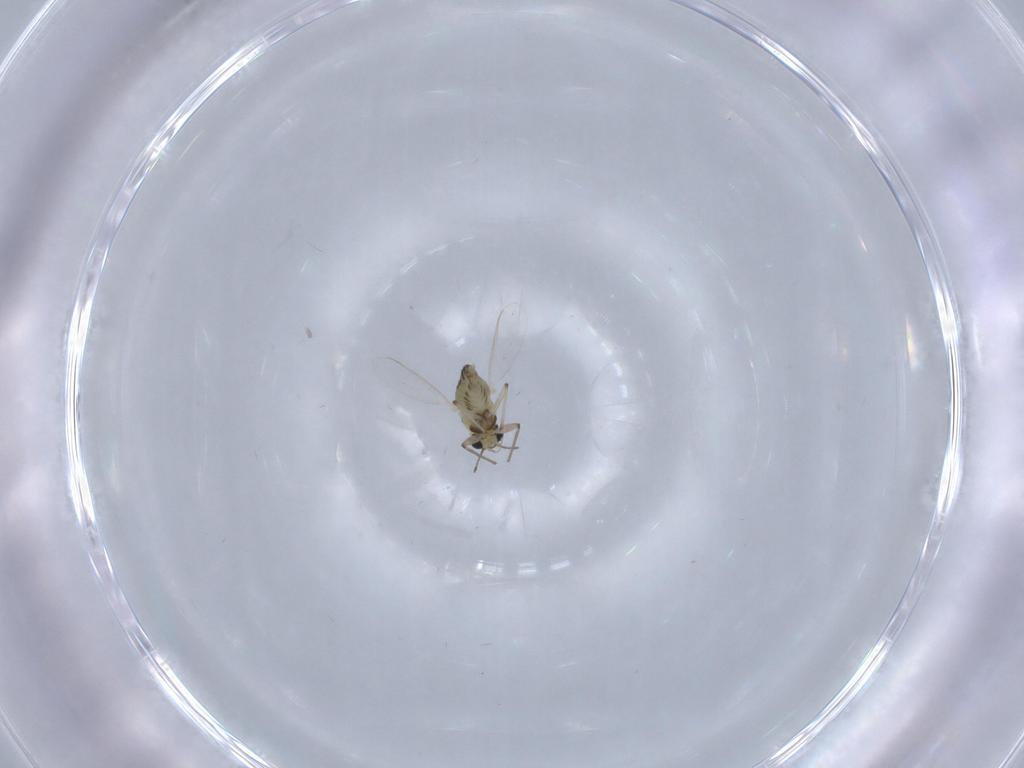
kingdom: Animalia
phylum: Arthropoda
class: Insecta
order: Diptera
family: Chironomidae
